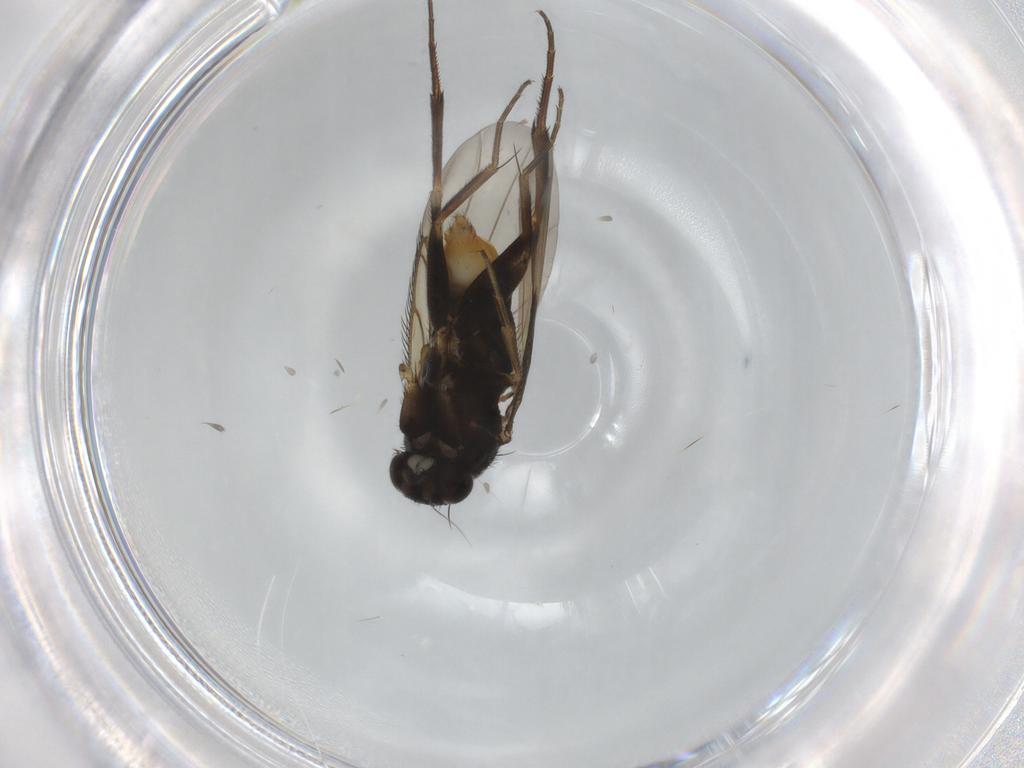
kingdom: Animalia
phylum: Arthropoda
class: Insecta
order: Diptera
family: Phoridae
